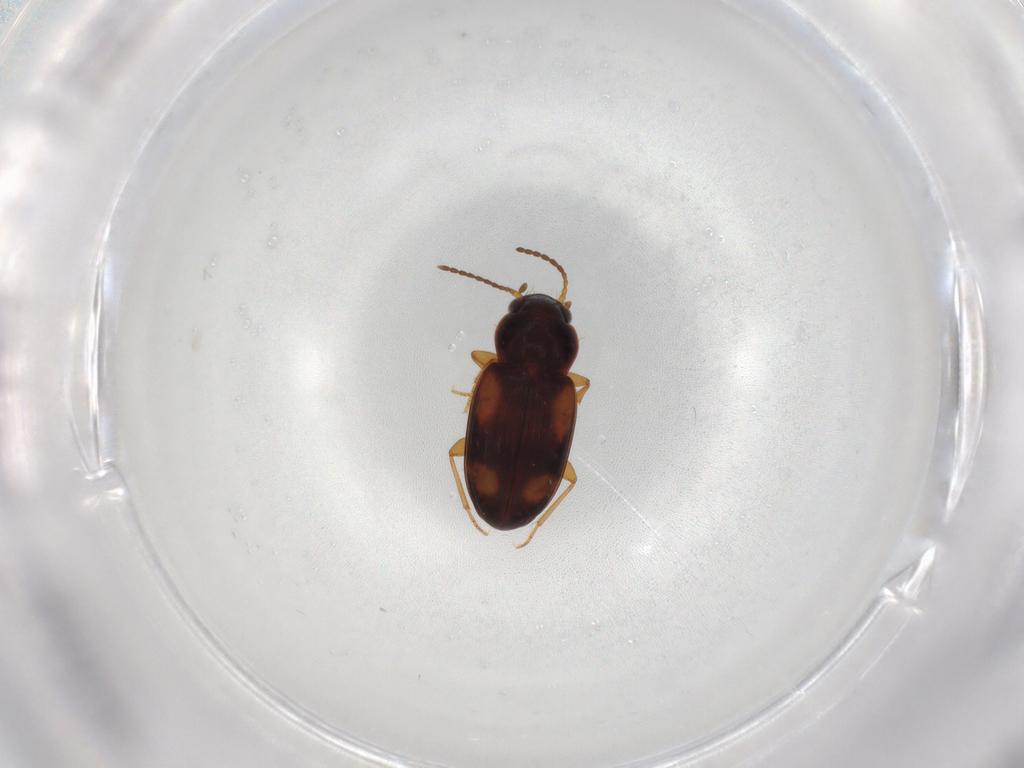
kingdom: Animalia
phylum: Arthropoda
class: Insecta
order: Coleoptera
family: Carabidae
